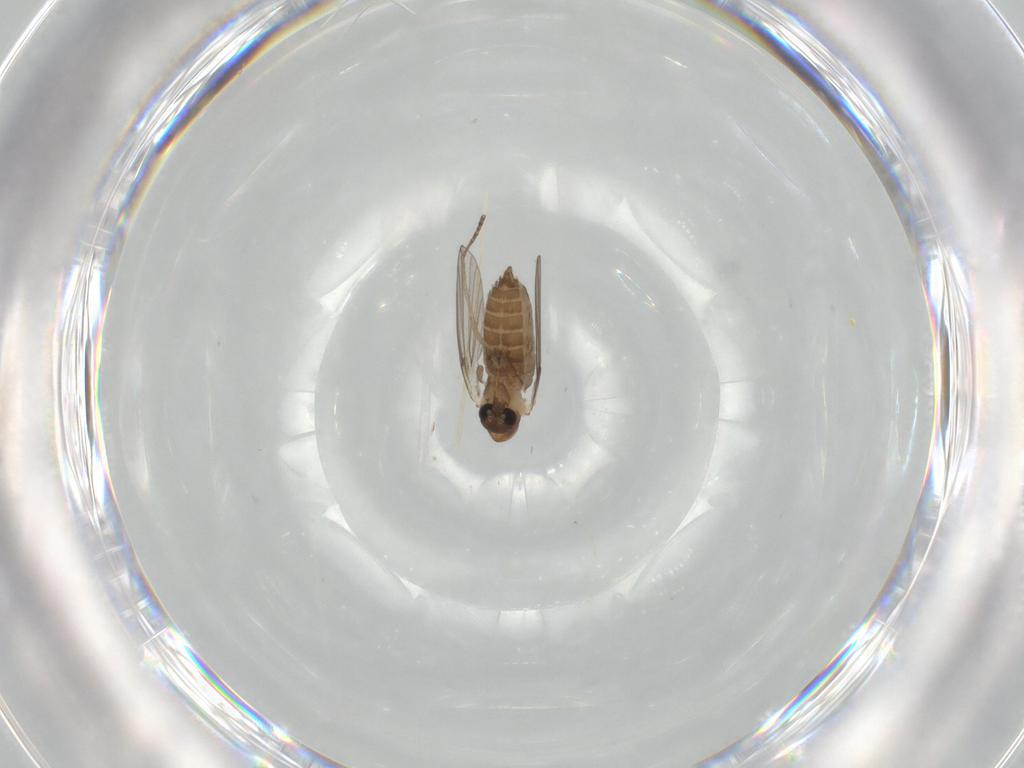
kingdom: Animalia
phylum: Arthropoda
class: Insecta
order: Diptera
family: Psychodidae
